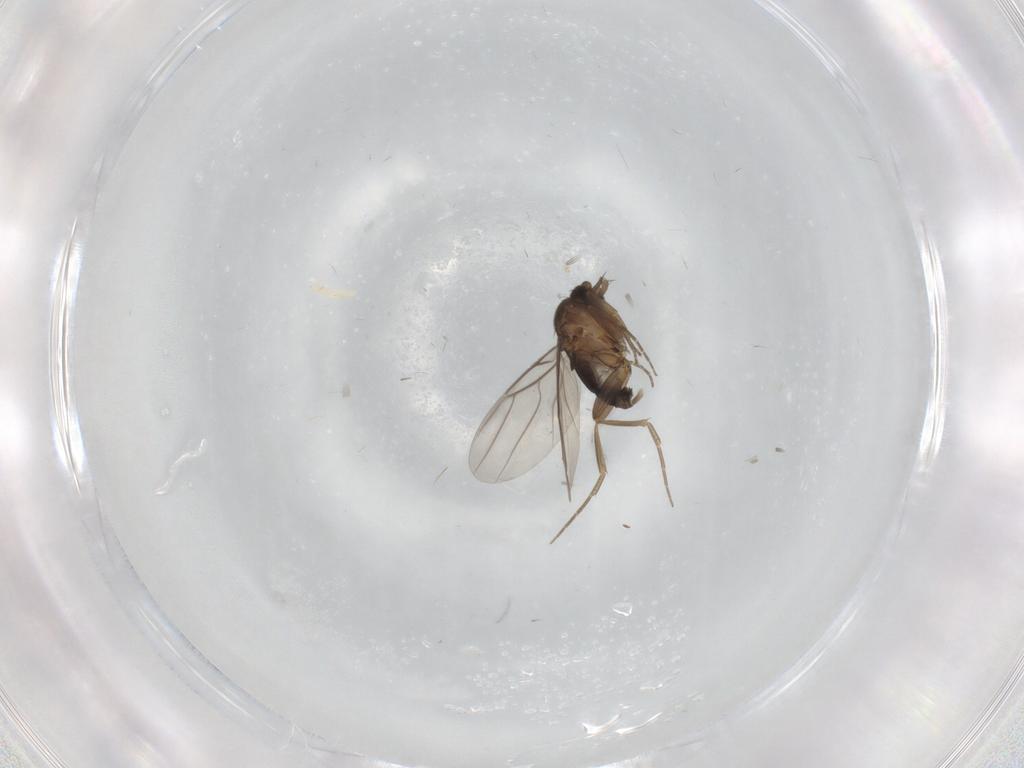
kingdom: Animalia
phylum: Arthropoda
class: Insecta
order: Diptera
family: Phoridae
